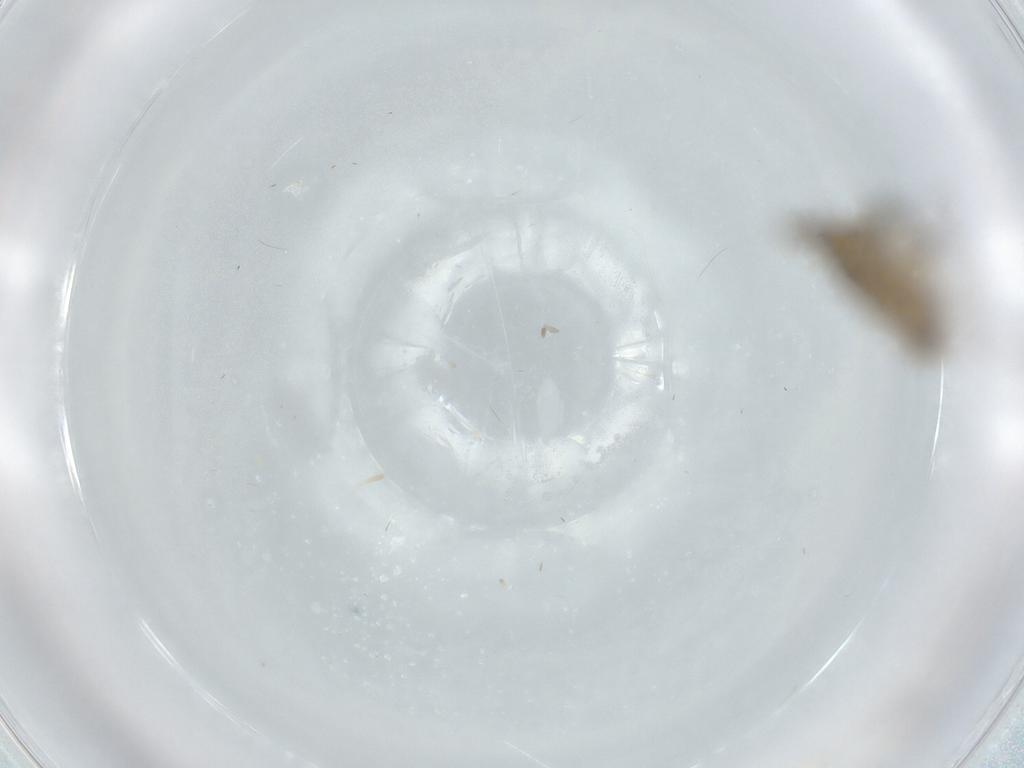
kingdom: Animalia
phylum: Arthropoda
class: Insecta
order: Hemiptera
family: Membracidae
